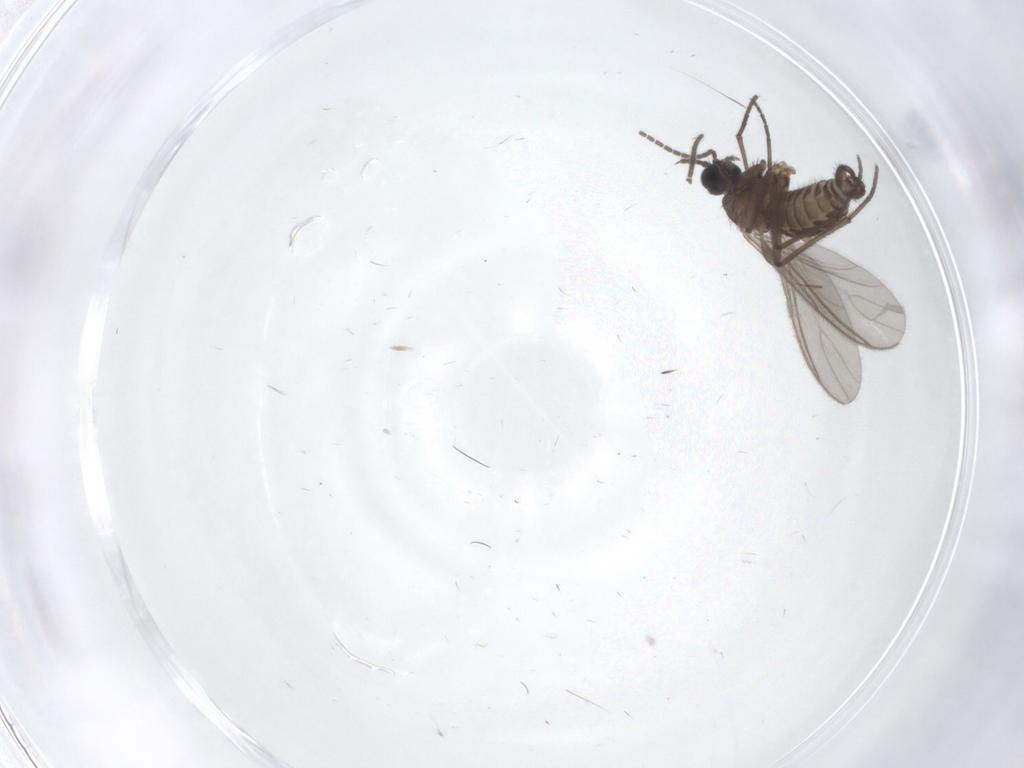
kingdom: Animalia
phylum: Arthropoda
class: Insecta
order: Diptera
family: Sciaridae
